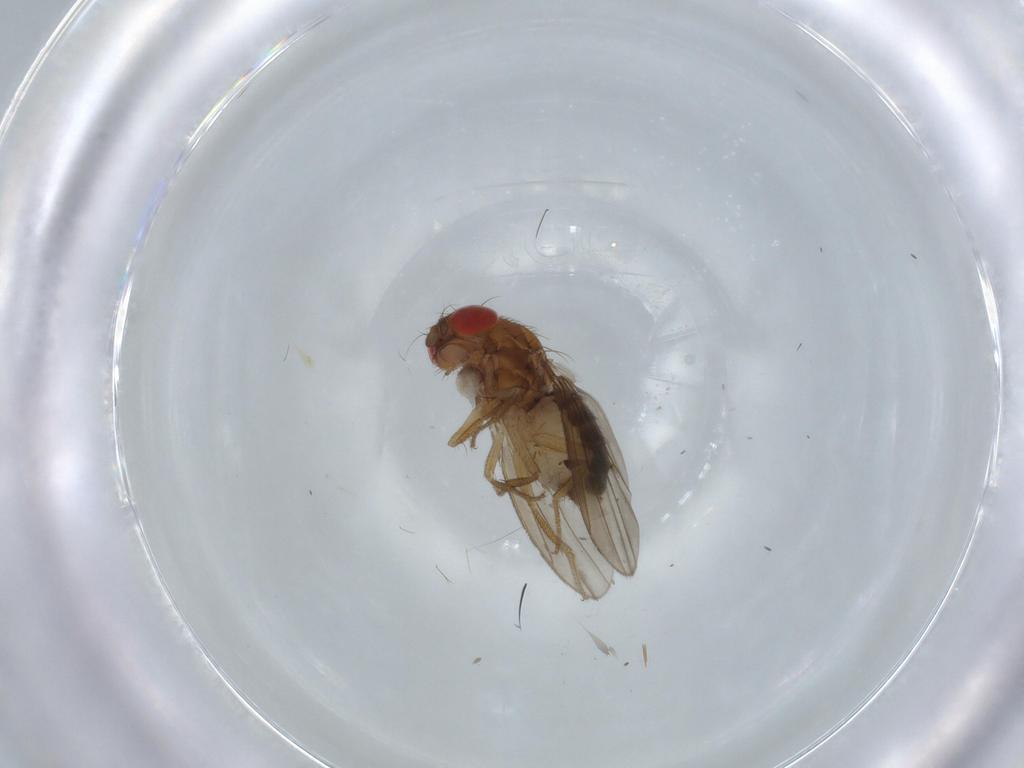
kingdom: Animalia
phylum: Arthropoda
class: Insecta
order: Diptera
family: Drosophilidae
